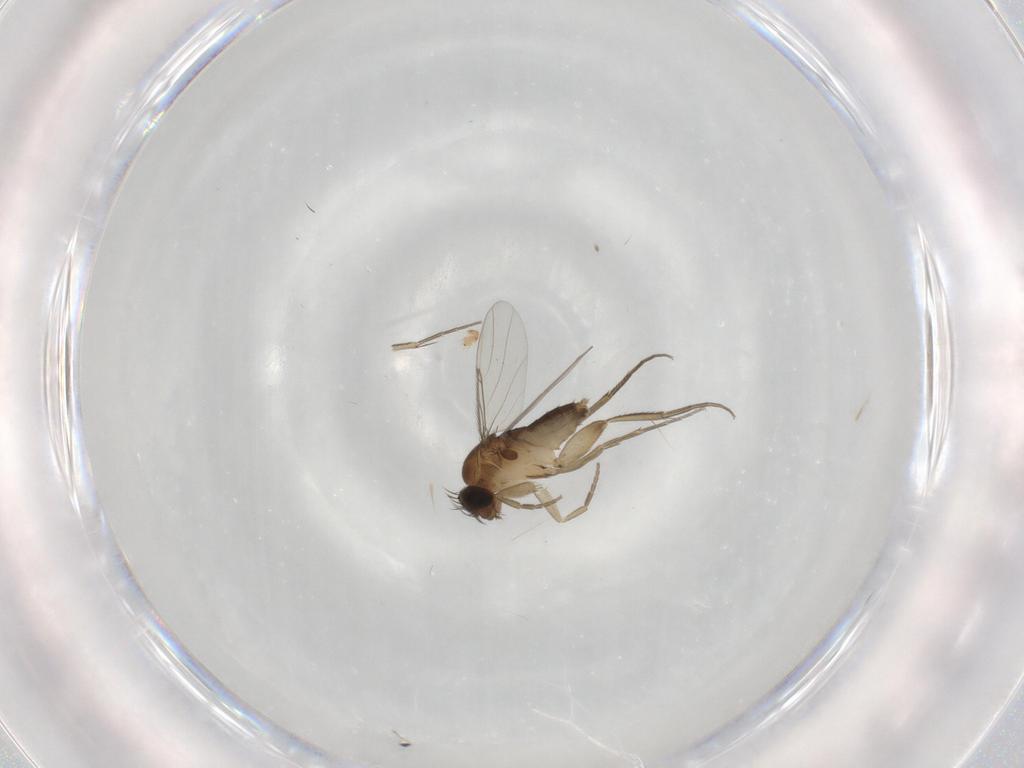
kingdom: Animalia
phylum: Arthropoda
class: Insecta
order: Diptera
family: Phoridae
